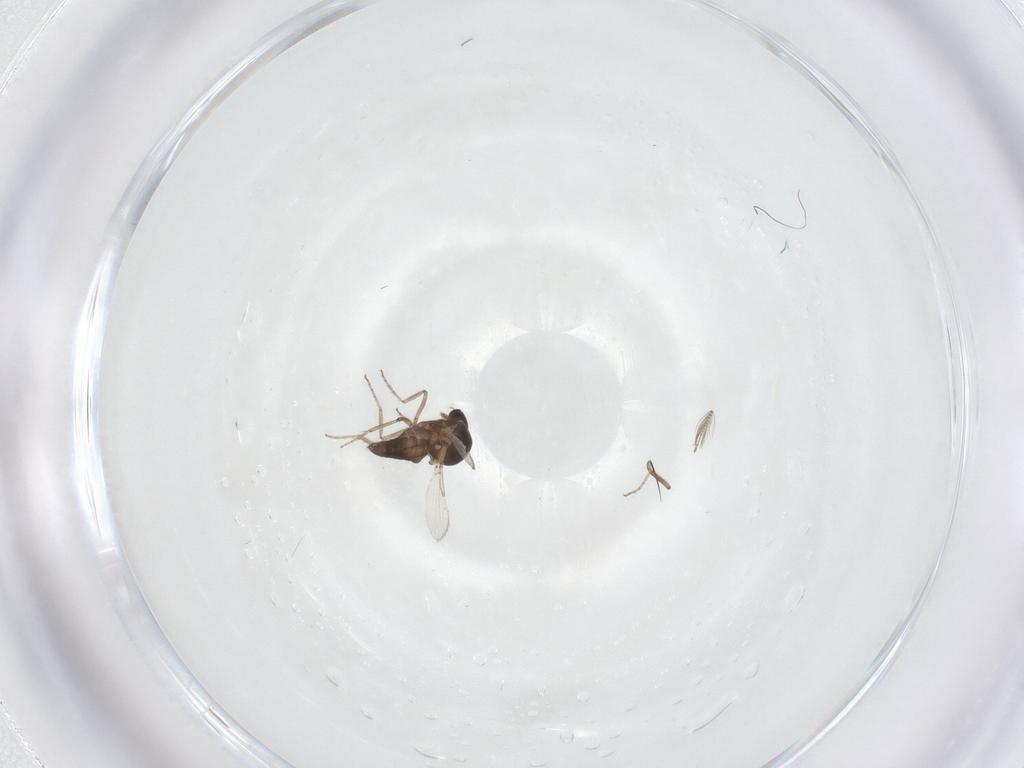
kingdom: Animalia
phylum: Arthropoda
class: Insecta
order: Diptera
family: Ceratopogonidae
